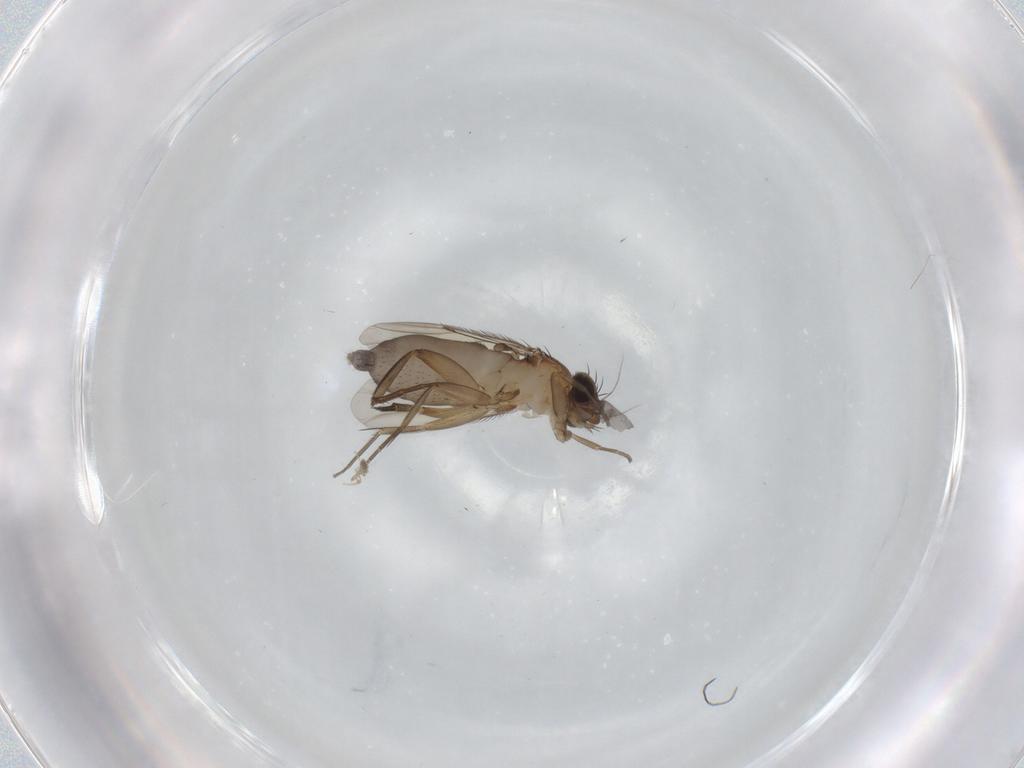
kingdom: Animalia
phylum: Arthropoda
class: Insecta
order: Diptera
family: Phoridae
